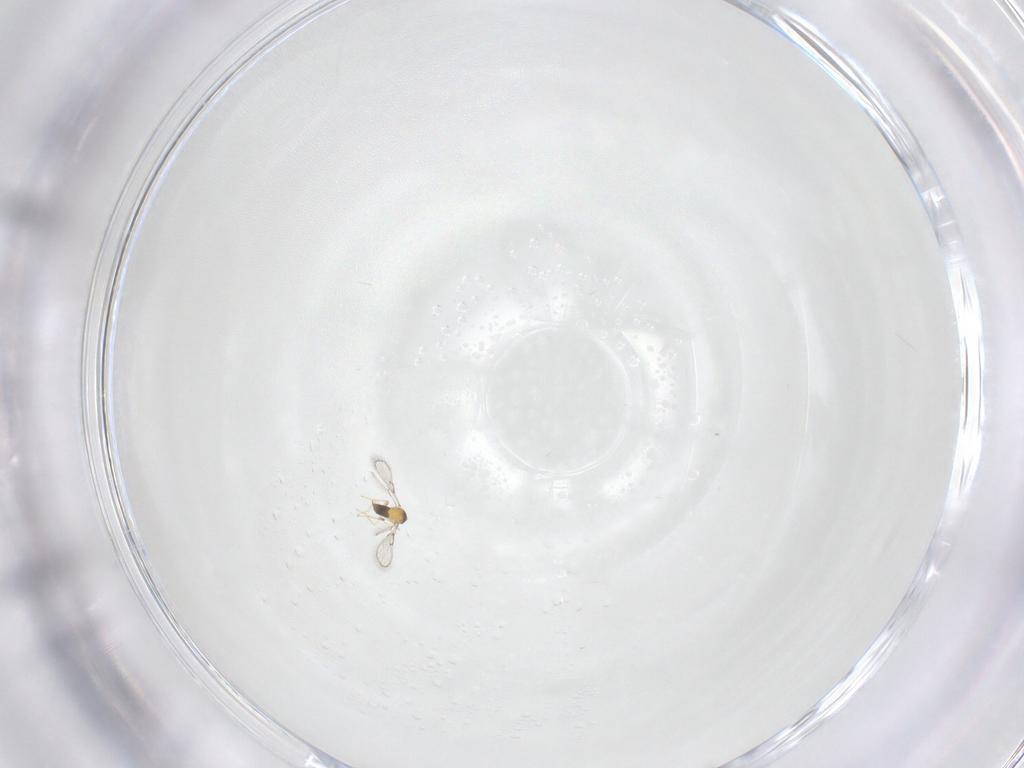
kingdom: Animalia
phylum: Arthropoda
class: Insecta
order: Hymenoptera
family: Trichogrammatidae
